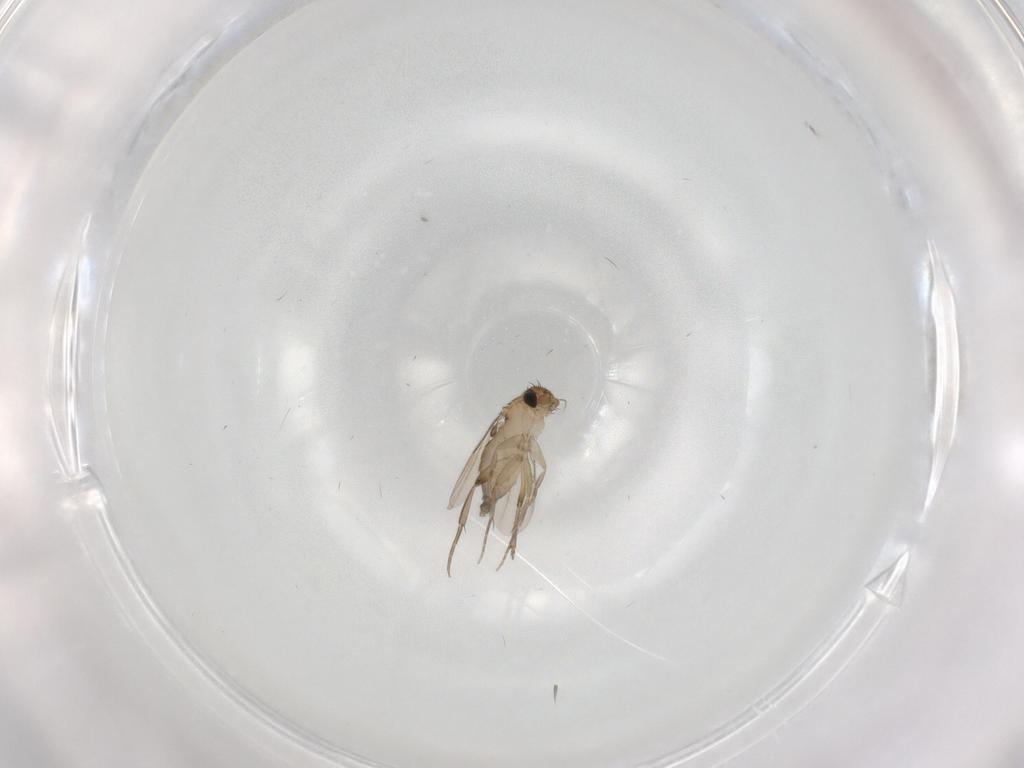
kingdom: Animalia
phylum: Arthropoda
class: Insecta
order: Diptera
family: Phoridae
